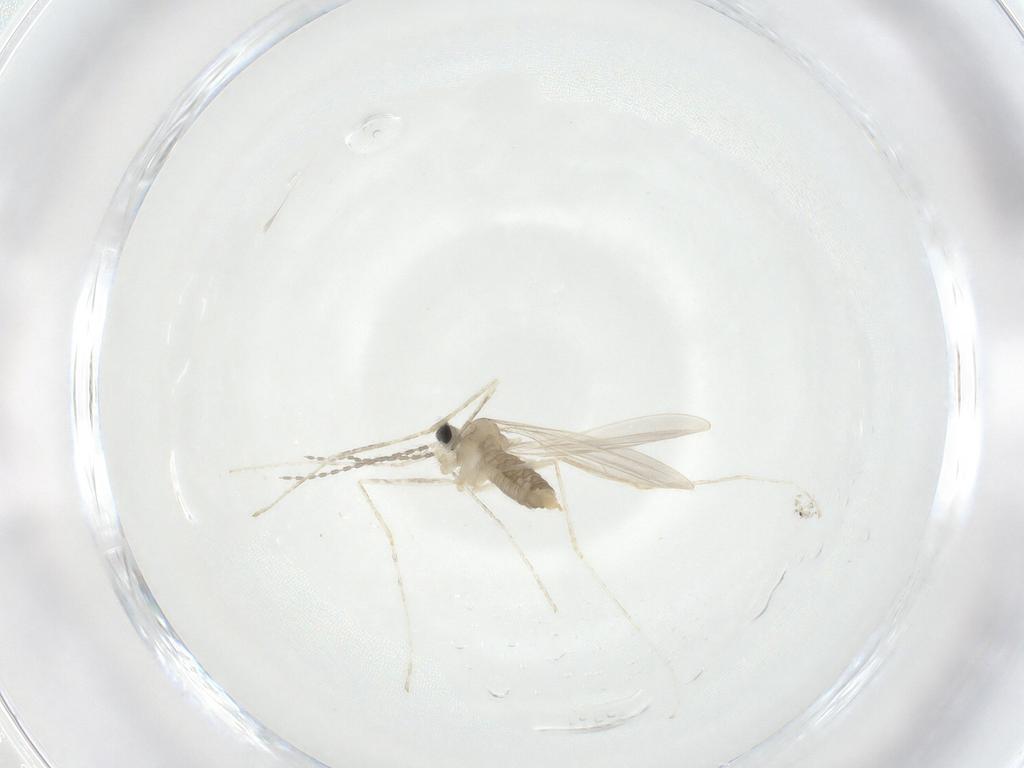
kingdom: Animalia
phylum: Arthropoda
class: Insecta
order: Diptera
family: Cecidomyiidae
